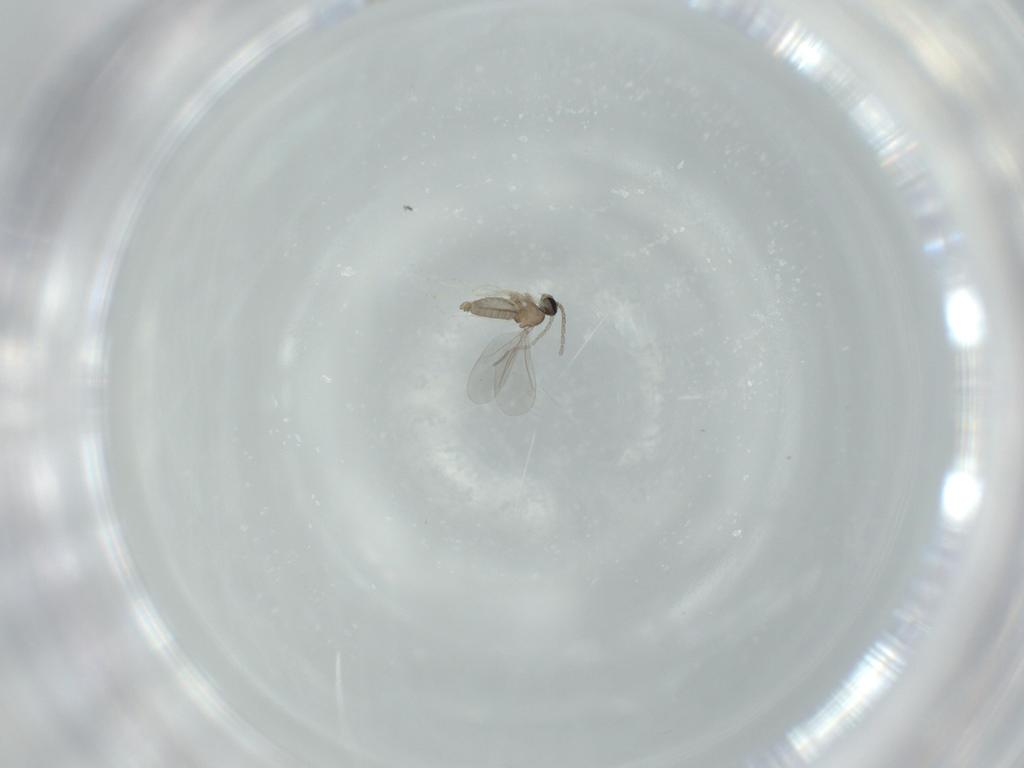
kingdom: Animalia
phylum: Arthropoda
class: Insecta
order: Diptera
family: Cecidomyiidae
